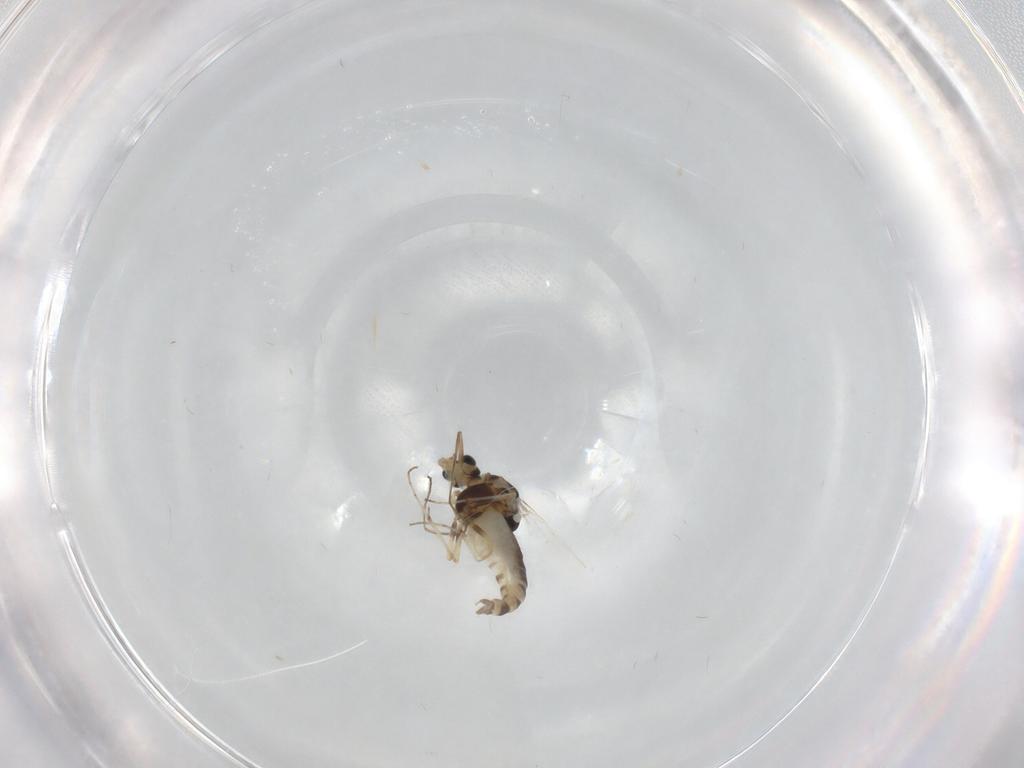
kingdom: Animalia
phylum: Arthropoda
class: Insecta
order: Diptera
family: Chironomidae
